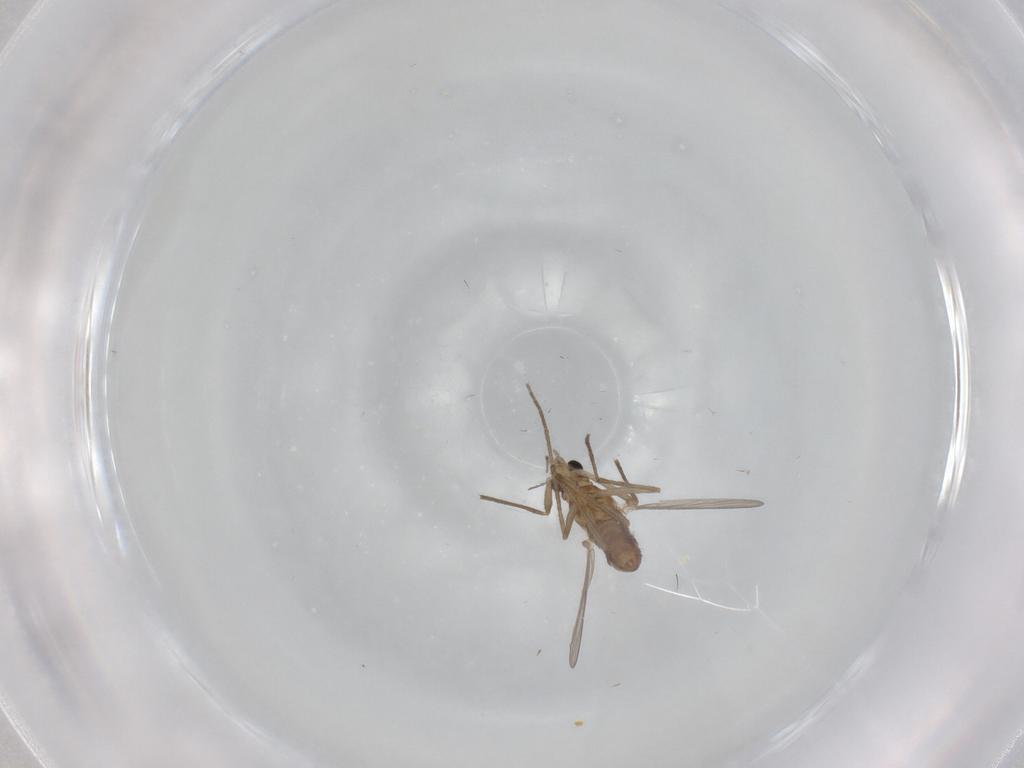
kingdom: Animalia
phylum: Arthropoda
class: Insecta
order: Diptera
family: Chironomidae
